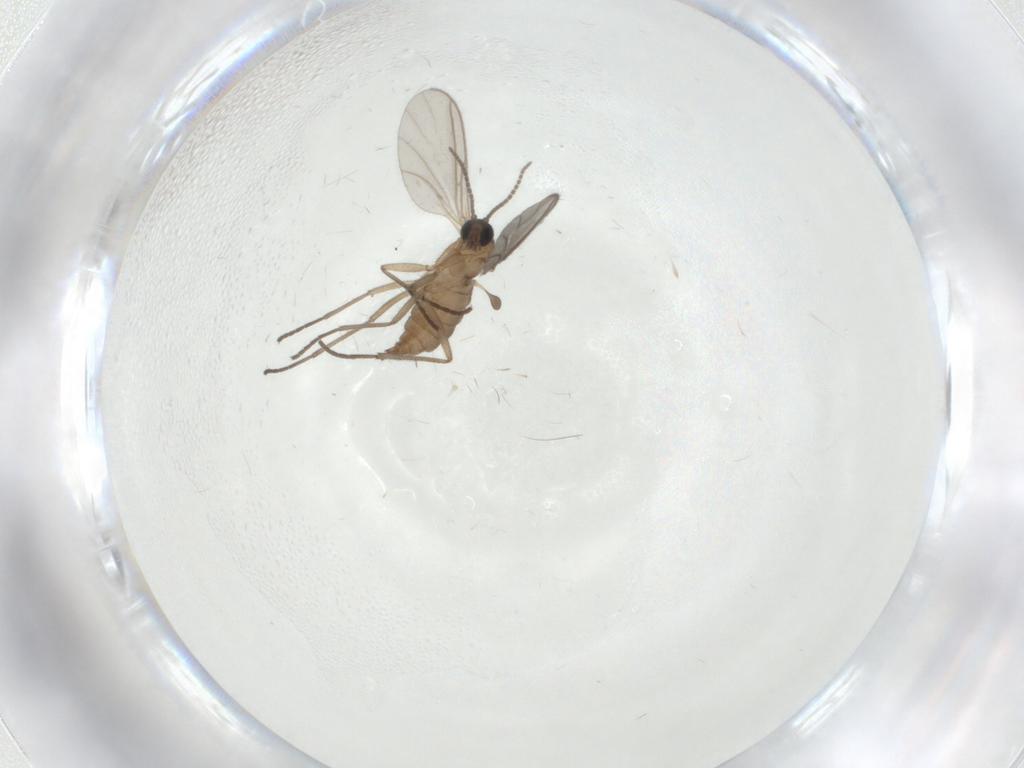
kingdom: Animalia
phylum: Arthropoda
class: Insecta
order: Diptera
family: Sciaridae
